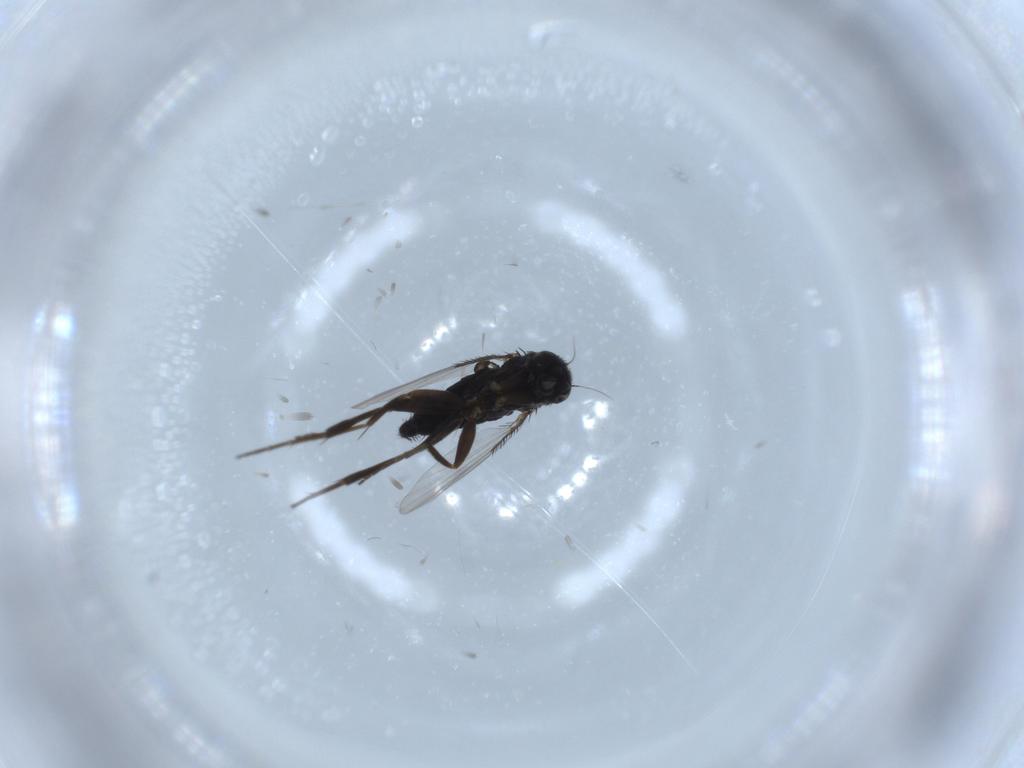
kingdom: Animalia
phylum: Arthropoda
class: Insecta
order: Diptera
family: Phoridae
